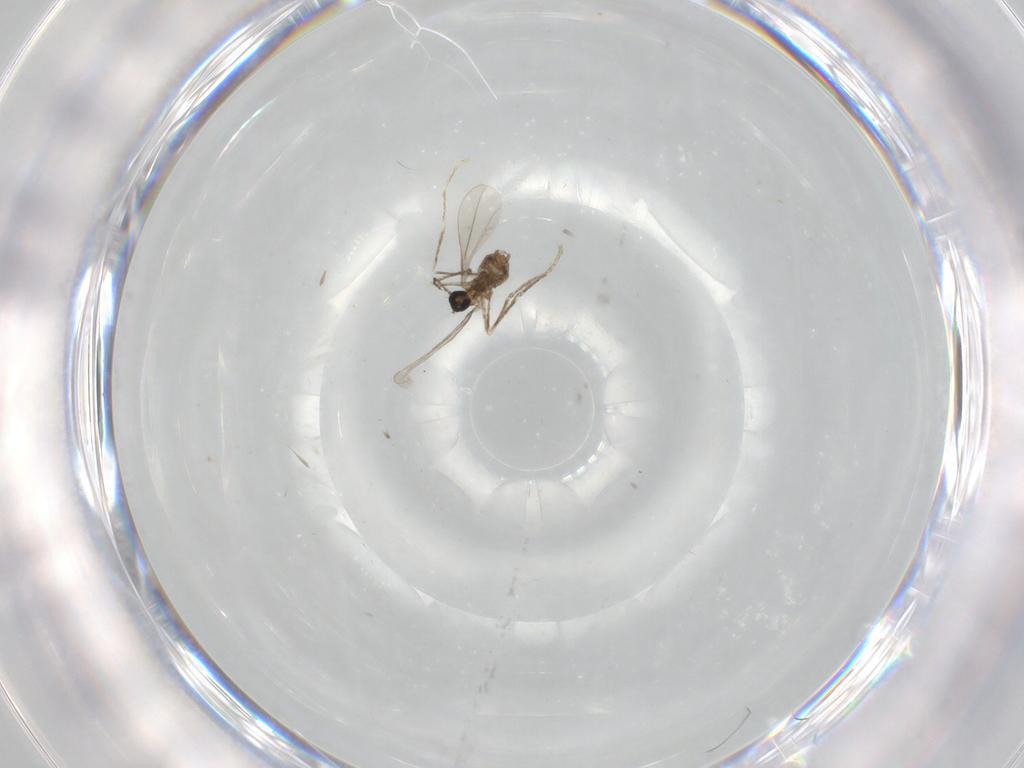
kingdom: Animalia
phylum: Arthropoda
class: Insecta
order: Diptera
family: Cecidomyiidae
